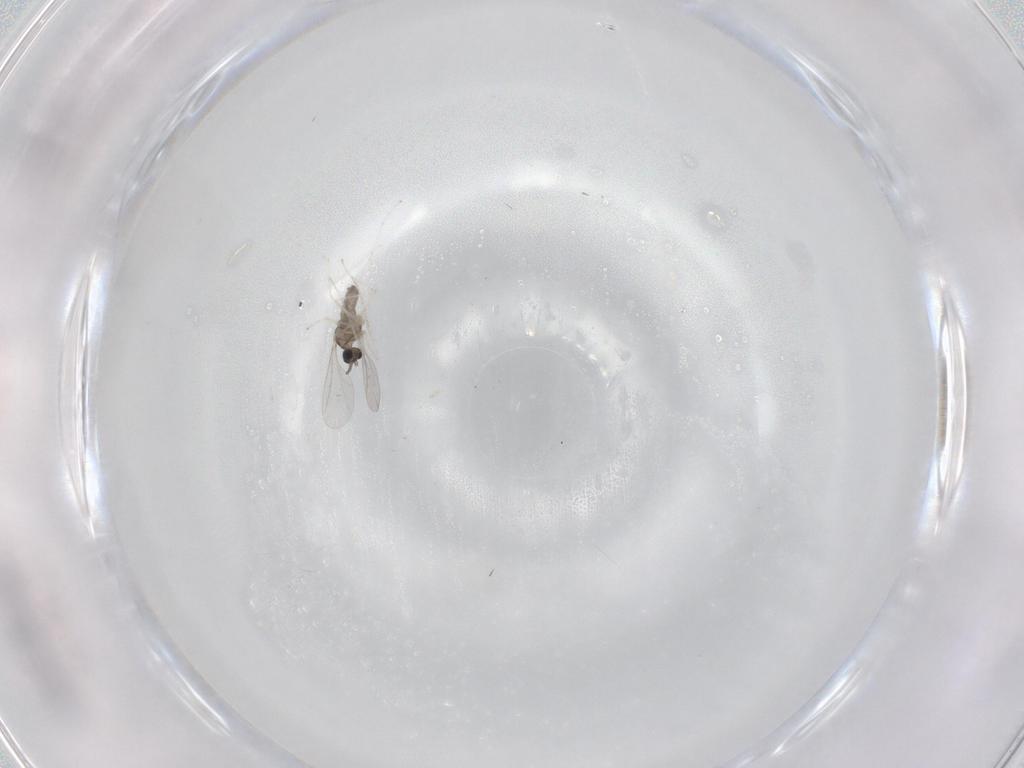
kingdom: Animalia
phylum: Arthropoda
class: Insecta
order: Diptera
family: Cecidomyiidae
